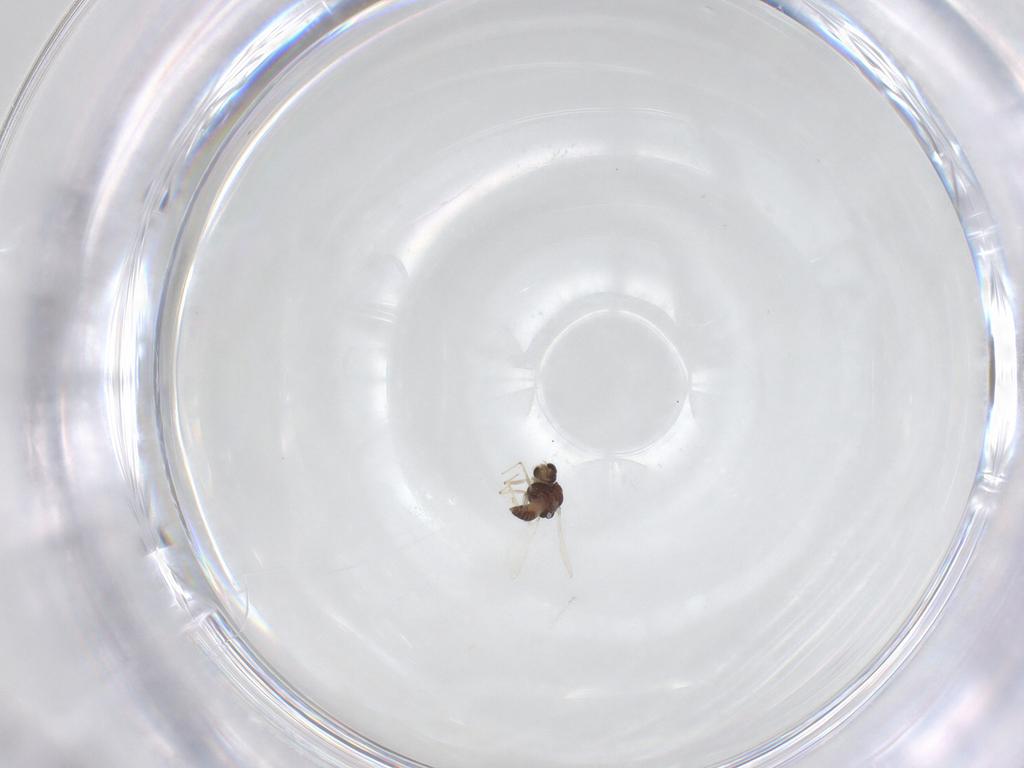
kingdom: Animalia
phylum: Arthropoda
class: Insecta
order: Diptera
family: Chironomidae
